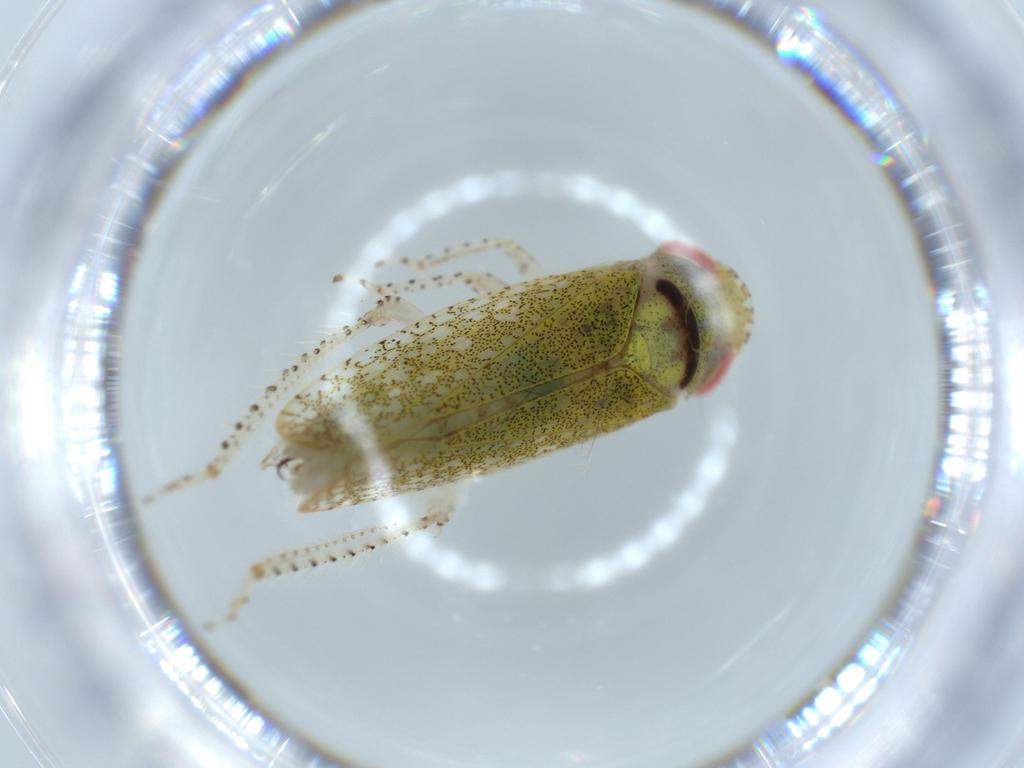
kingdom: Animalia
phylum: Arthropoda
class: Insecta
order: Hemiptera
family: Cicadellidae
